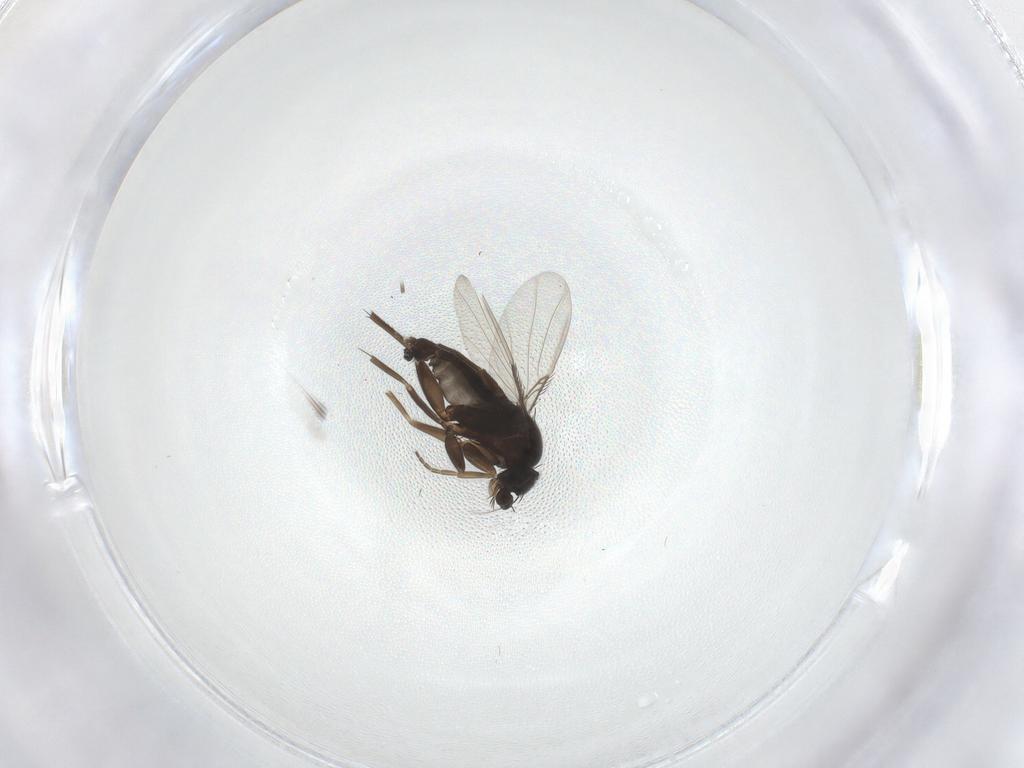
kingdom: Animalia
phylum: Arthropoda
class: Insecta
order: Diptera
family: Limoniidae
